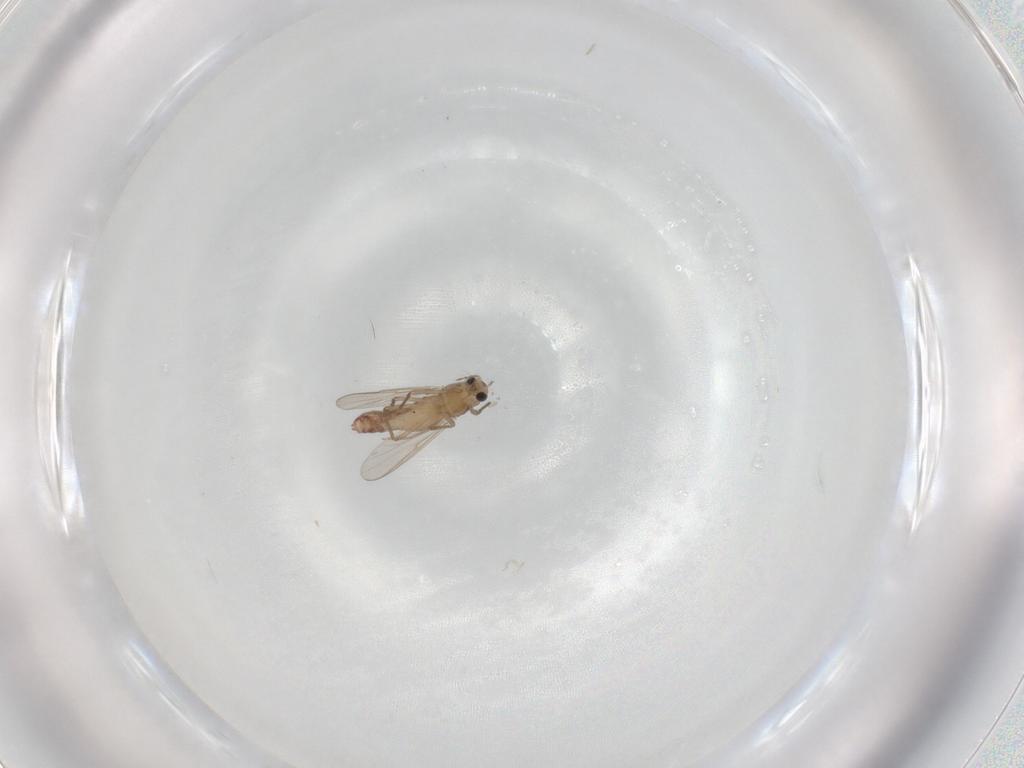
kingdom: Animalia
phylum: Arthropoda
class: Insecta
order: Diptera
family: Chironomidae
